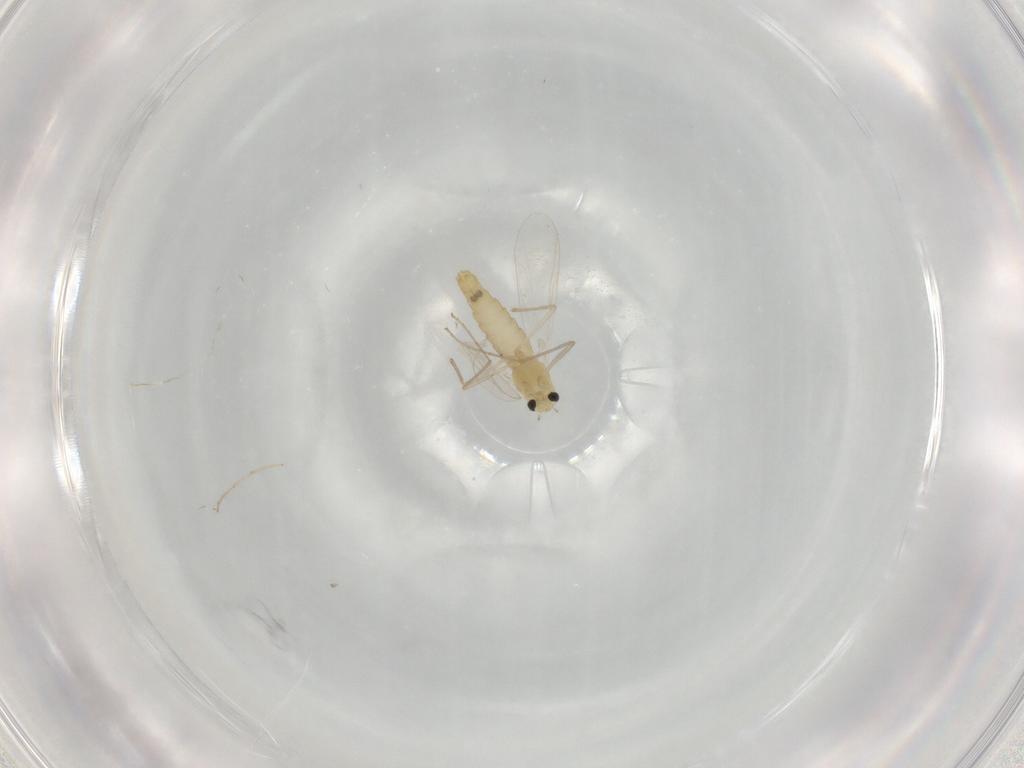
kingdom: Animalia
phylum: Arthropoda
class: Insecta
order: Diptera
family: Chironomidae
